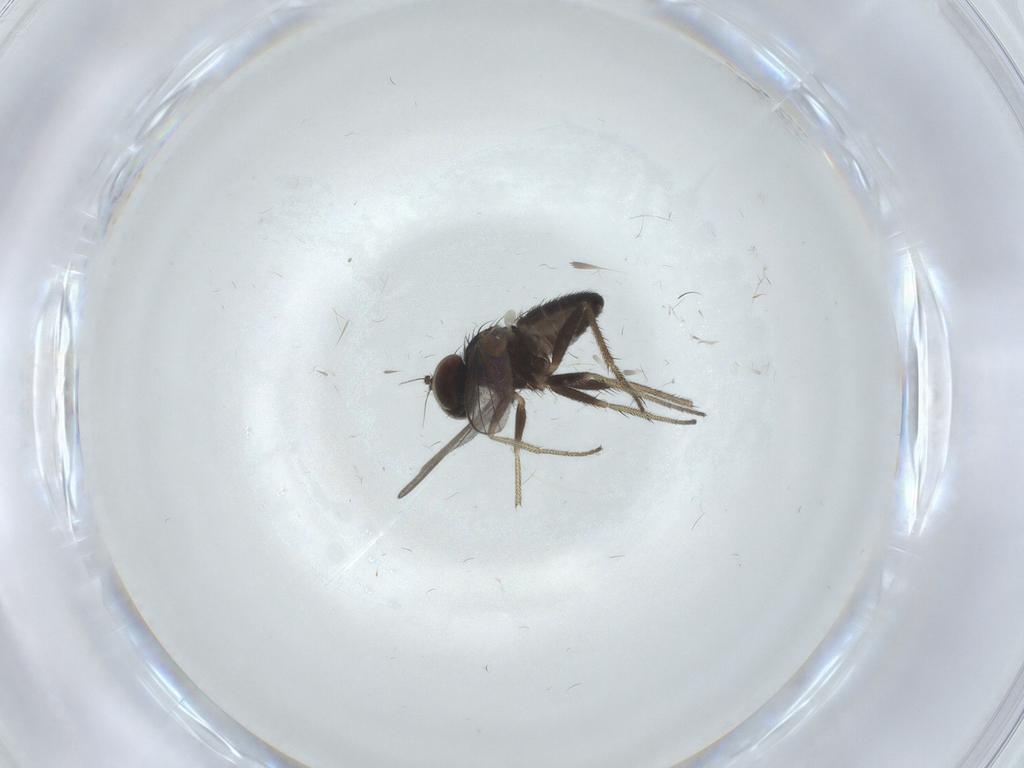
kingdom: Animalia
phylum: Arthropoda
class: Insecta
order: Diptera
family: Dolichopodidae
